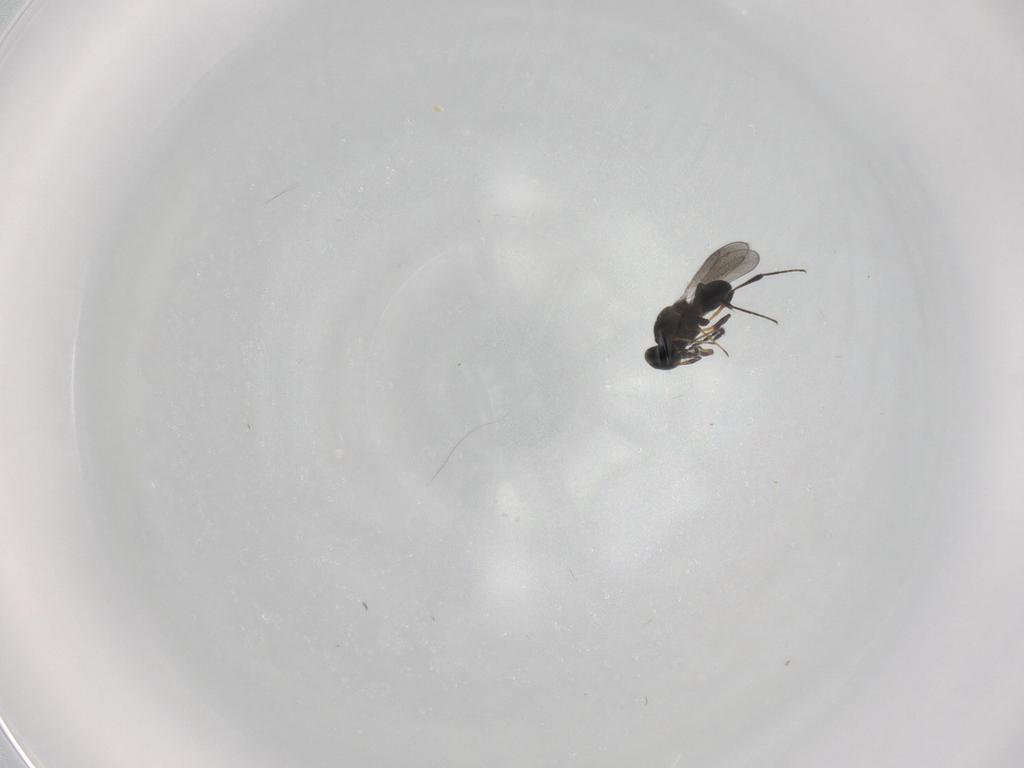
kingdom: Animalia
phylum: Arthropoda
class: Insecta
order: Hymenoptera
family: Platygastridae
